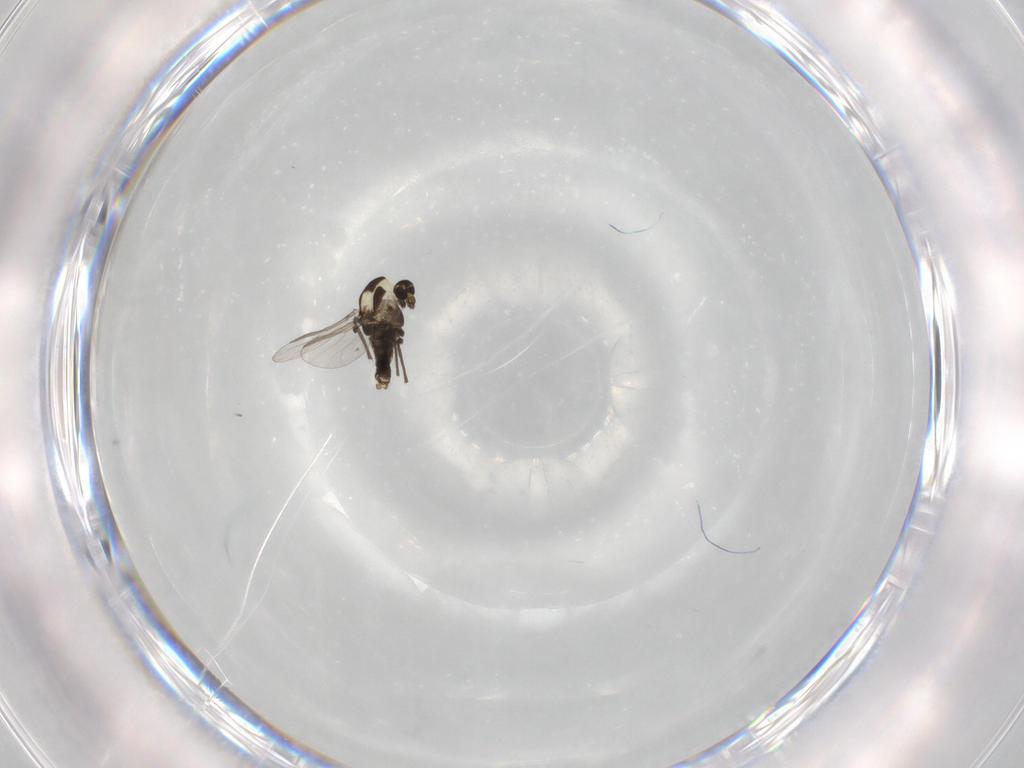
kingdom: Animalia
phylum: Arthropoda
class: Insecta
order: Diptera
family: Chironomidae
